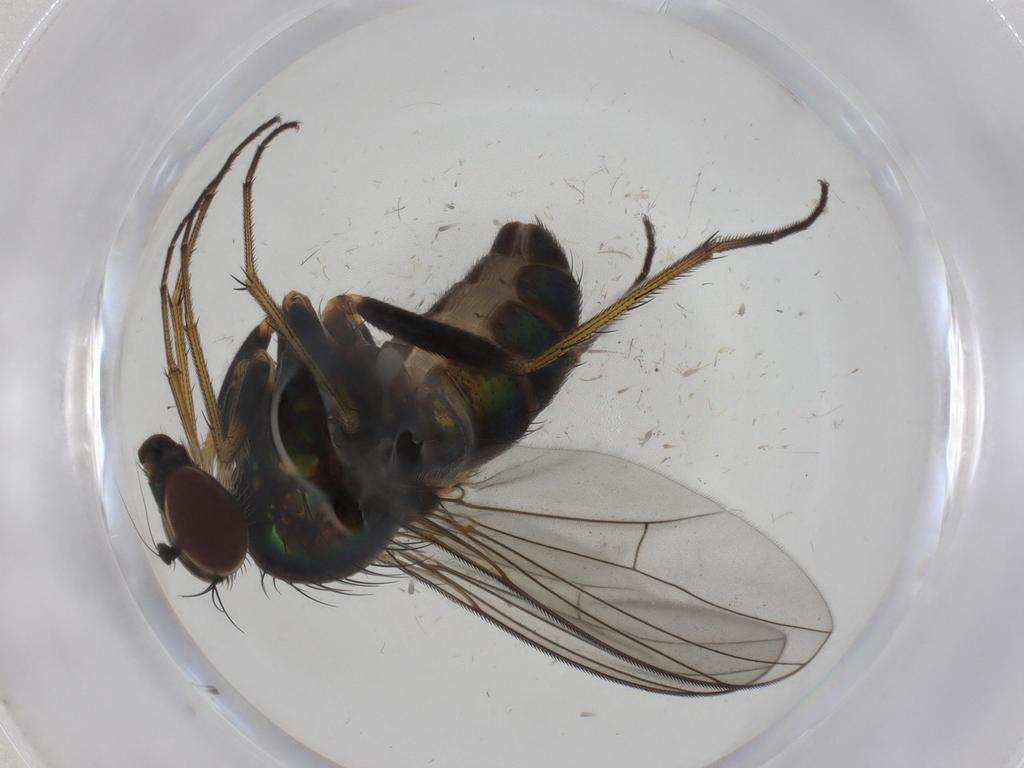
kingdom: Animalia
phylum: Arthropoda
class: Insecta
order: Diptera
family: Dolichopodidae
